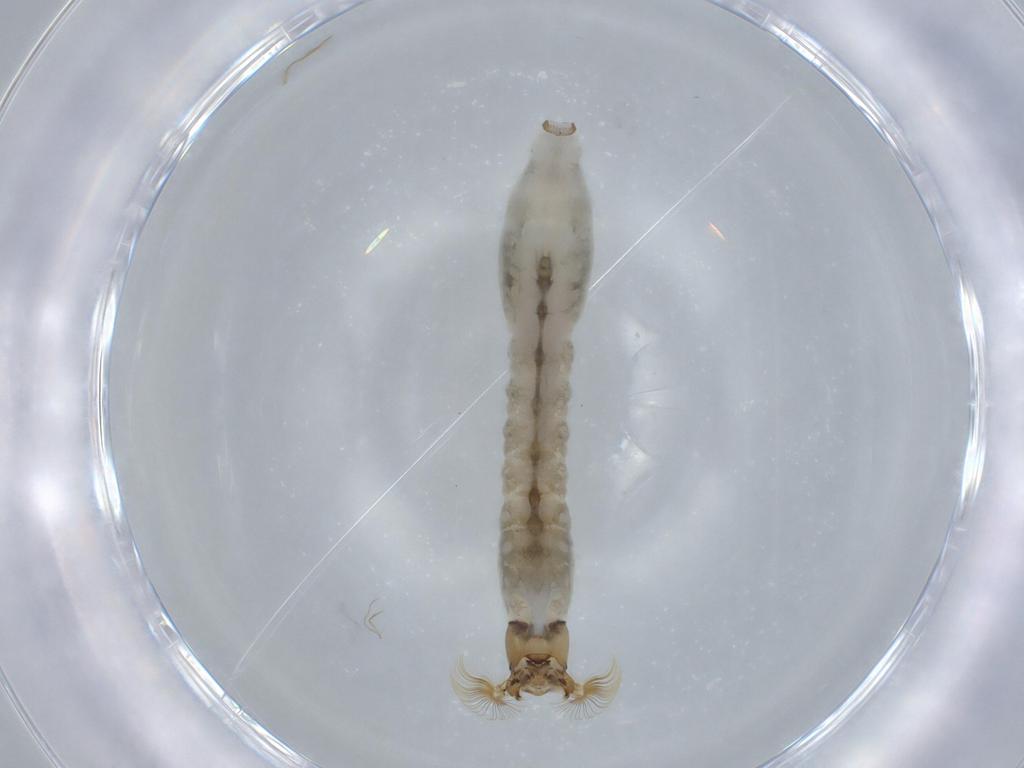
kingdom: Animalia
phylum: Arthropoda
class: Insecta
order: Diptera
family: Simuliidae
